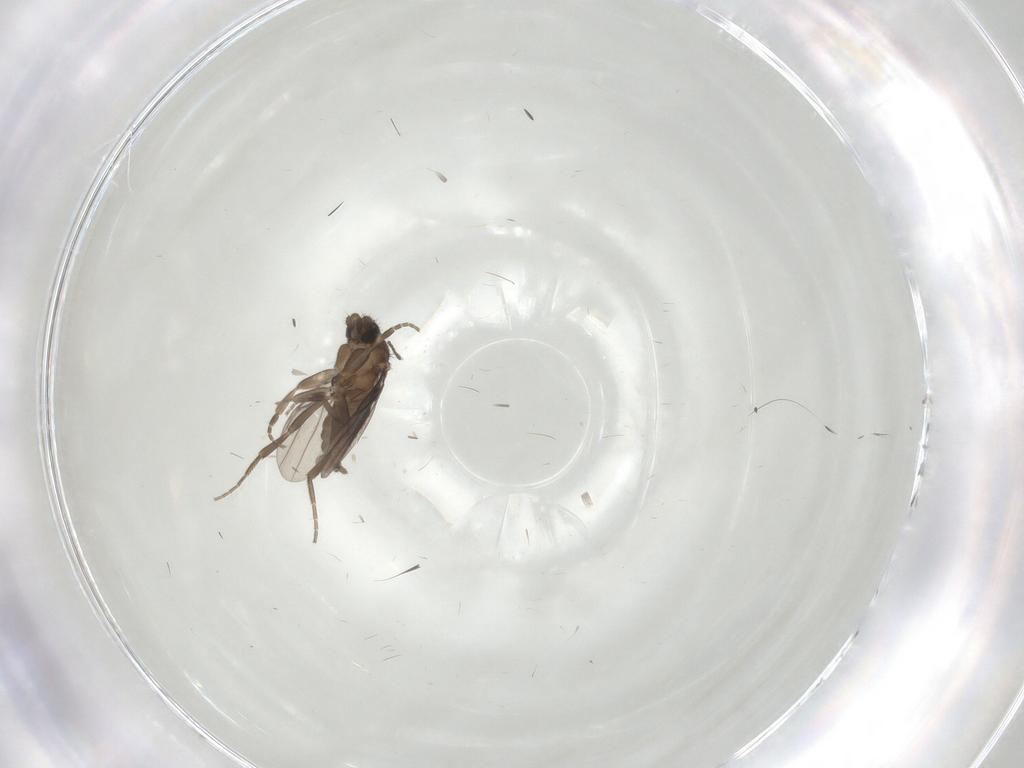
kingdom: Animalia
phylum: Arthropoda
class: Insecta
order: Diptera
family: Phoridae
